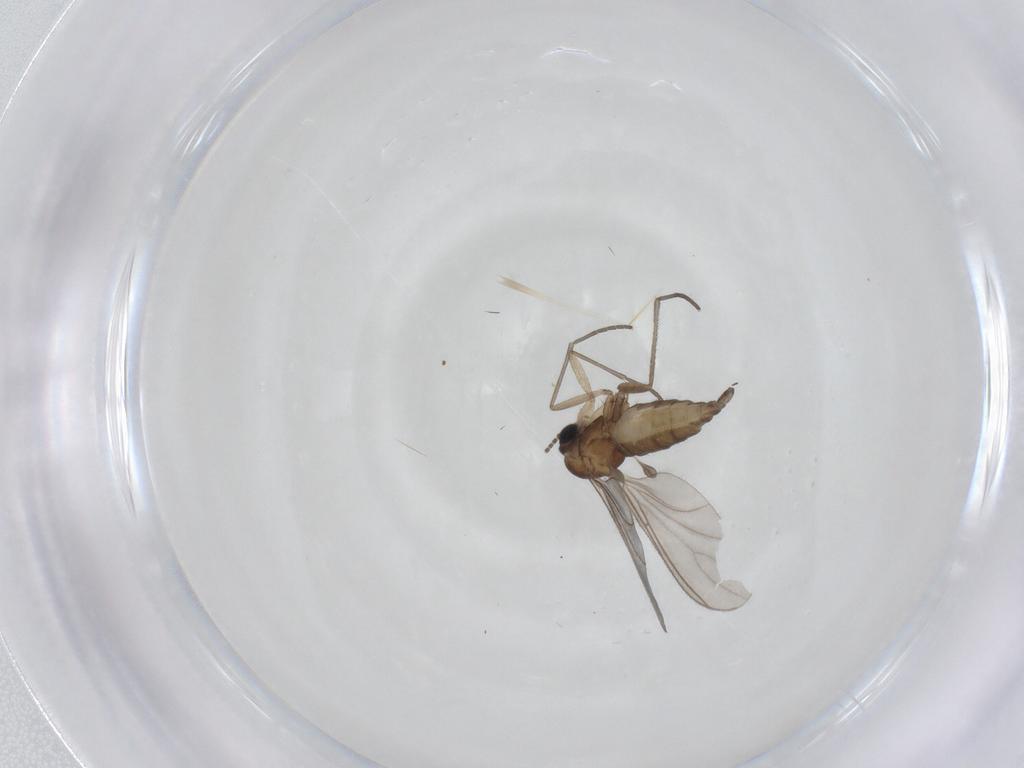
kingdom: Animalia
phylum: Arthropoda
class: Insecta
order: Diptera
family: Sciaridae
